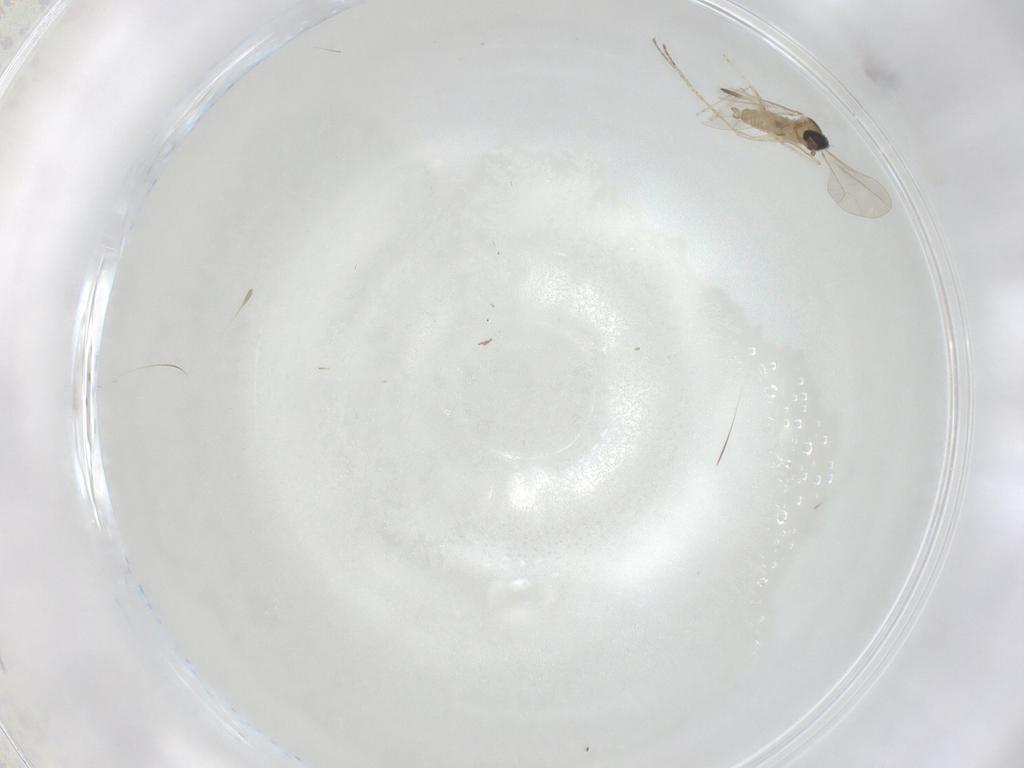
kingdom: Animalia
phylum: Arthropoda
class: Insecta
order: Diptera
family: Cecidomyiidae
